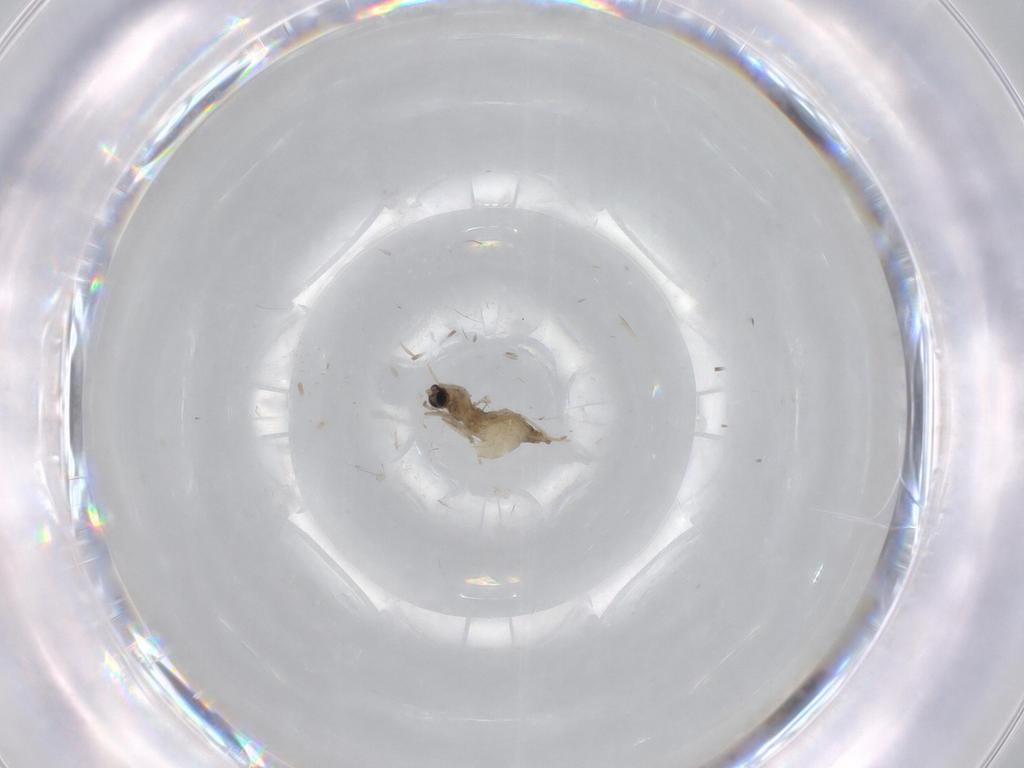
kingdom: Animalia
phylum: Arthropoda
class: Insecta
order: Diptera
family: Cecidomyiidae
